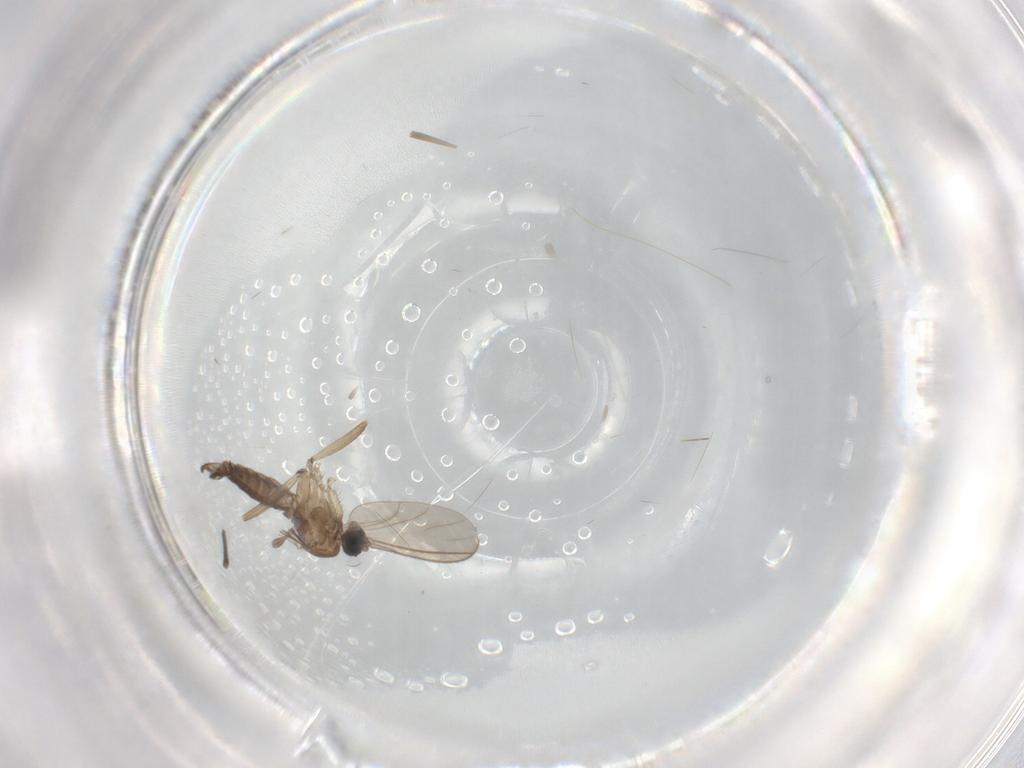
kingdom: Animalia
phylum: Arthropoda
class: Insecta
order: Diptera
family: Sciaridae
